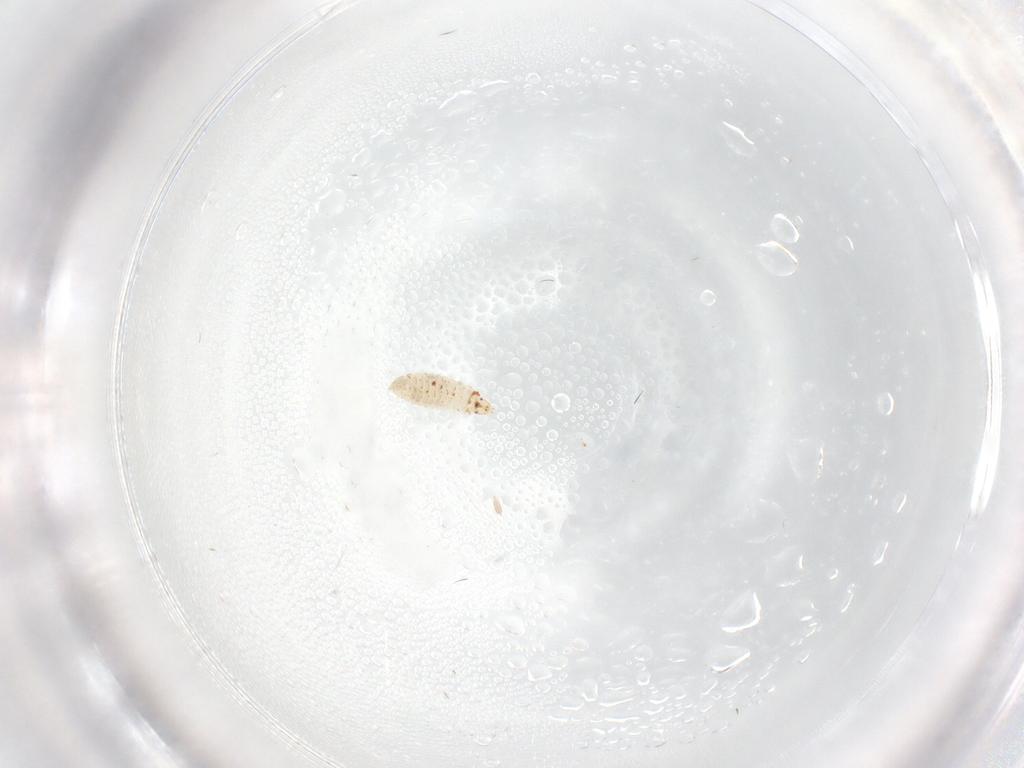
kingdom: Animalia
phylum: Arthropoda
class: Insecta
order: Diptera
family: Sciaridae
